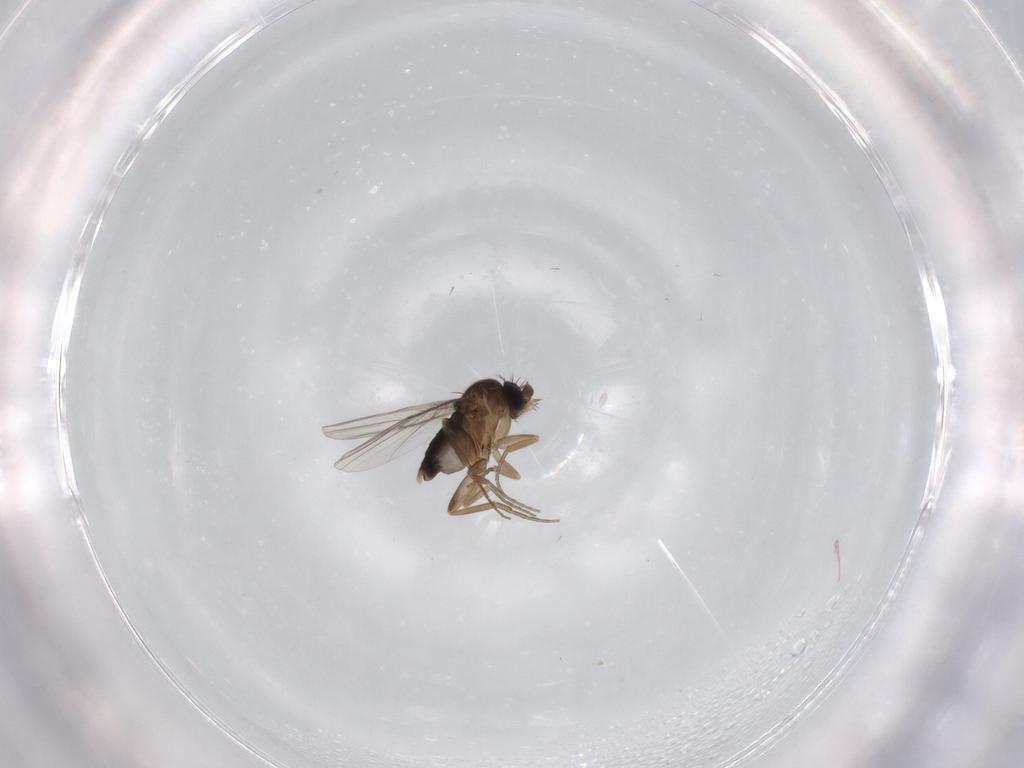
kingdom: Animalia
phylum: Arthropoda
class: Insecta
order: Diptera
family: Phoridae
